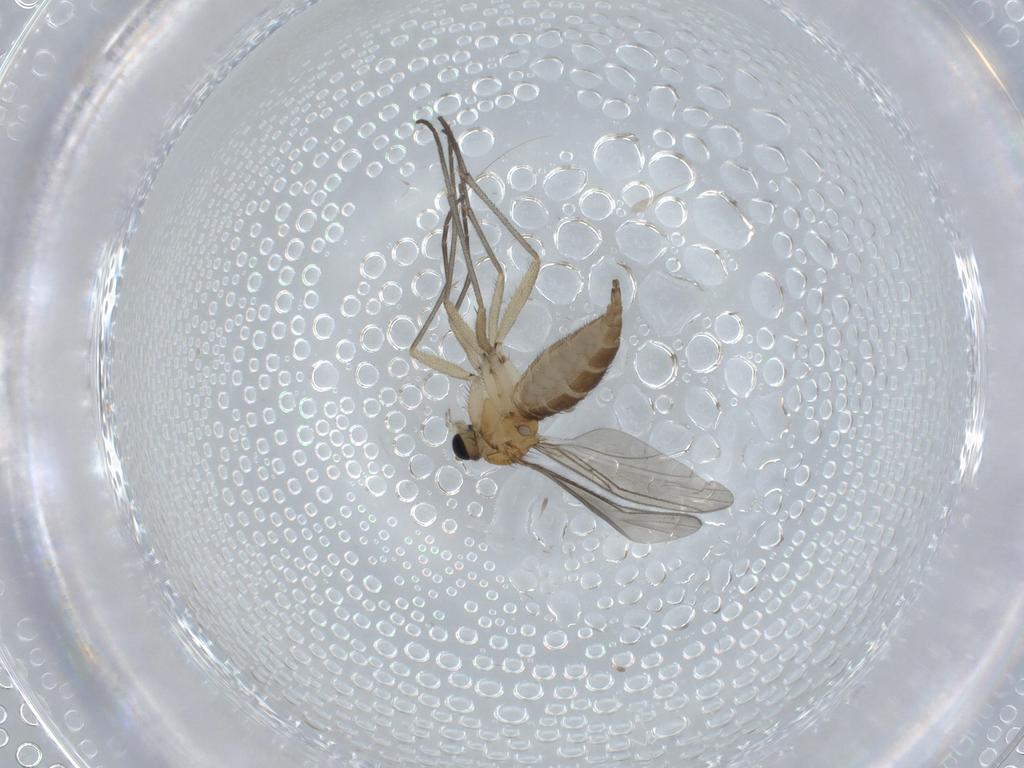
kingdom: Animalia
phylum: Arthropoda
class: Insecta
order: Diptera
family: Sciaridae
